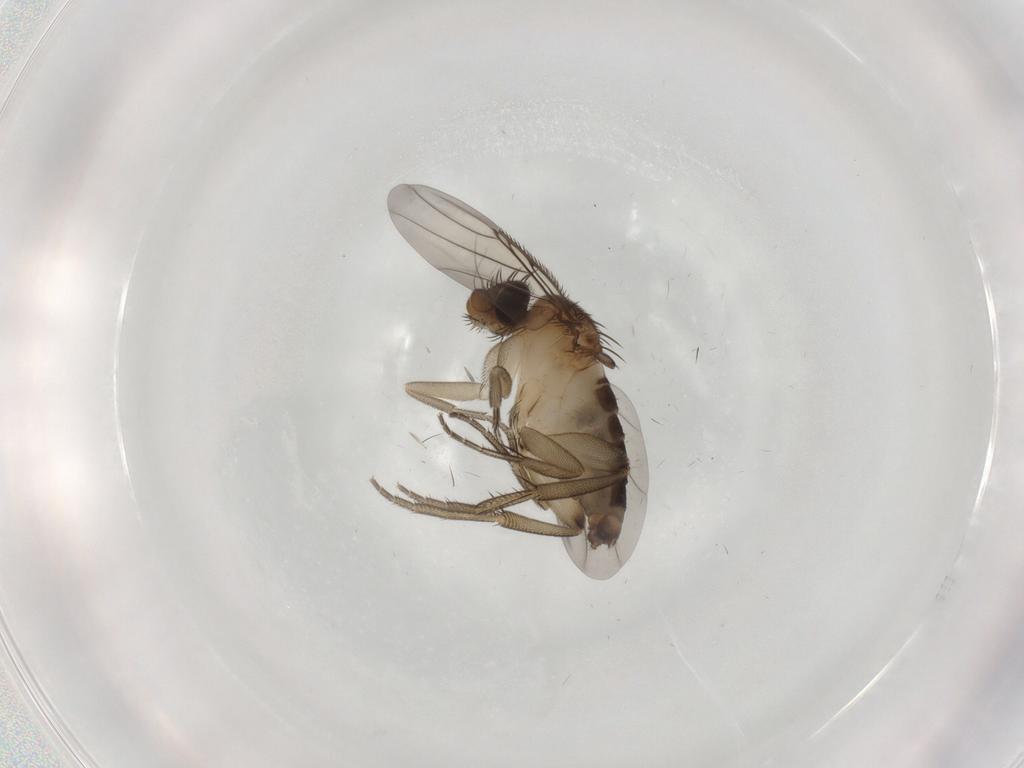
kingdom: Animalia
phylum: Arthropoda
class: Insecta
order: Diptera
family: Phoridae
